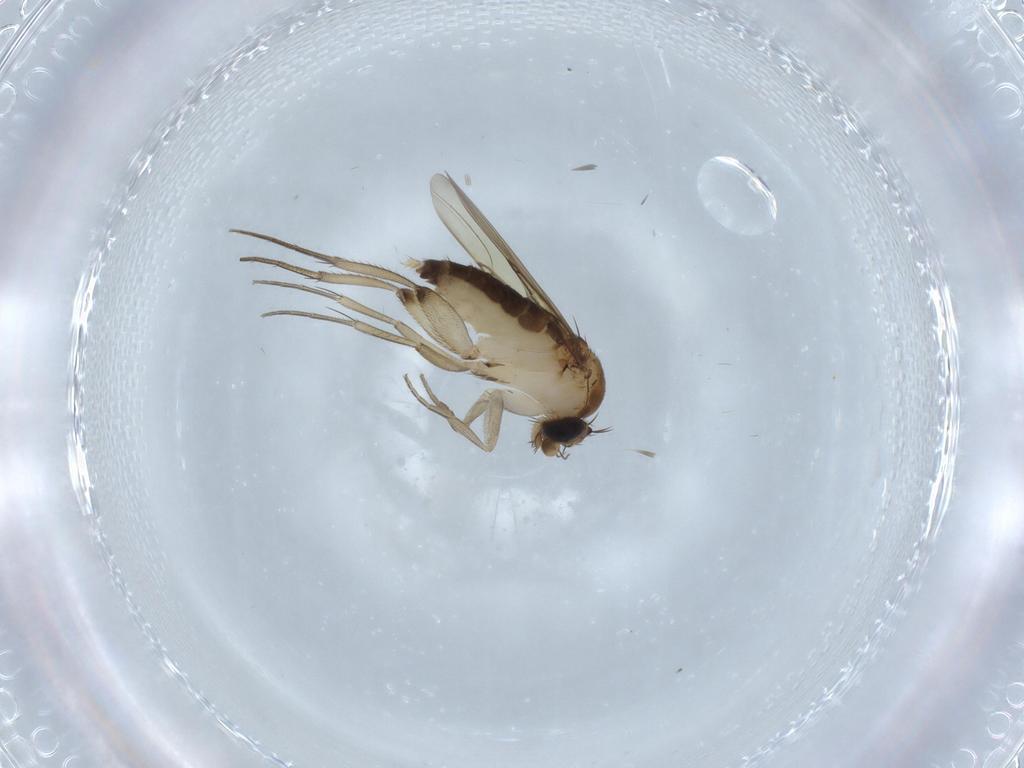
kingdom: Animalia
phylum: Arthropoda
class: Insecta
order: Diptera
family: Phoridae
